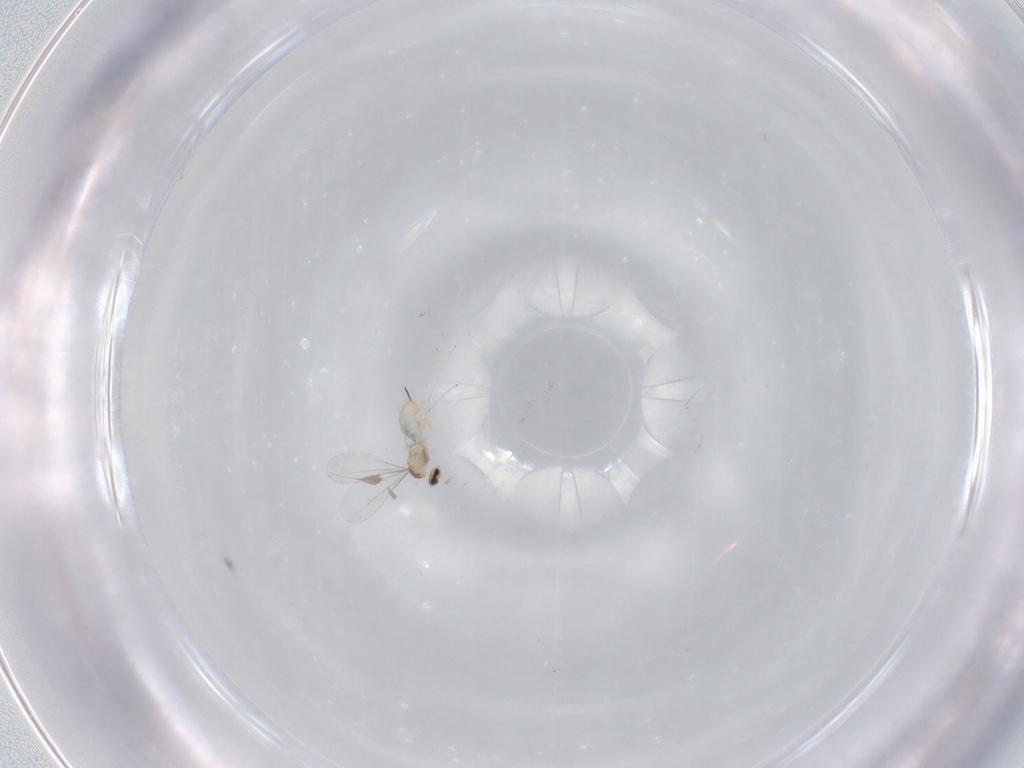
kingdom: Animalia
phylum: Arthropoda
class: Insecta
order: Diptera
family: Cecidomyiidae
